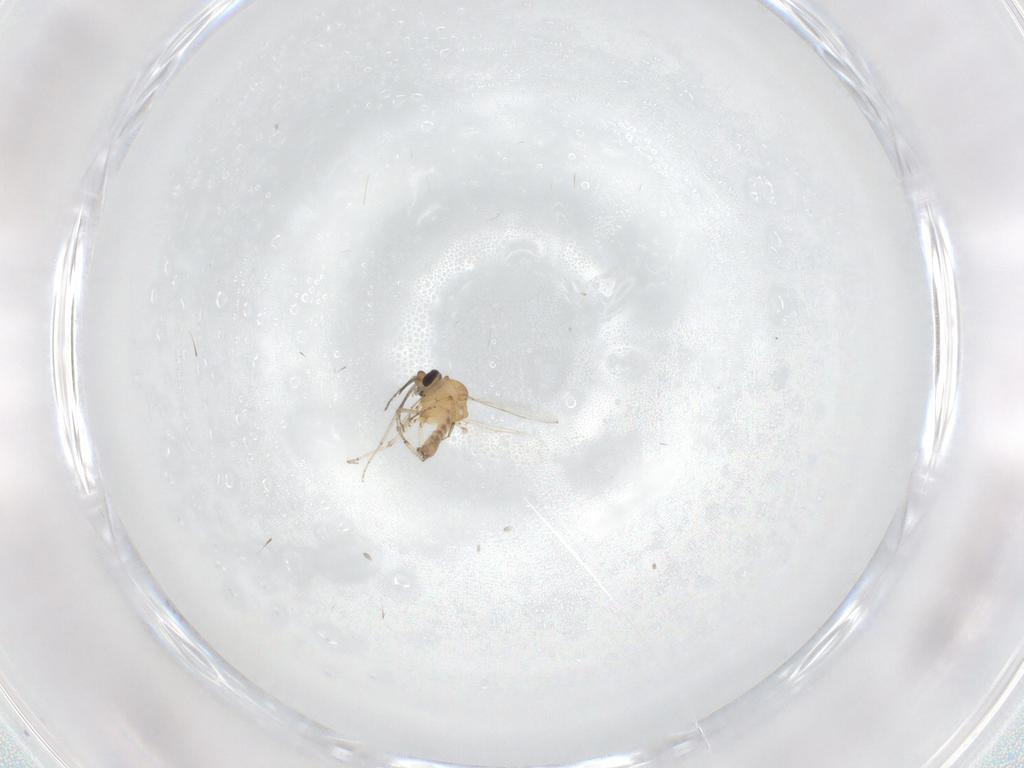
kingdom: Animalia
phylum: Arthropoda
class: Insecta
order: Diptera
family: Ceratopogonidae
